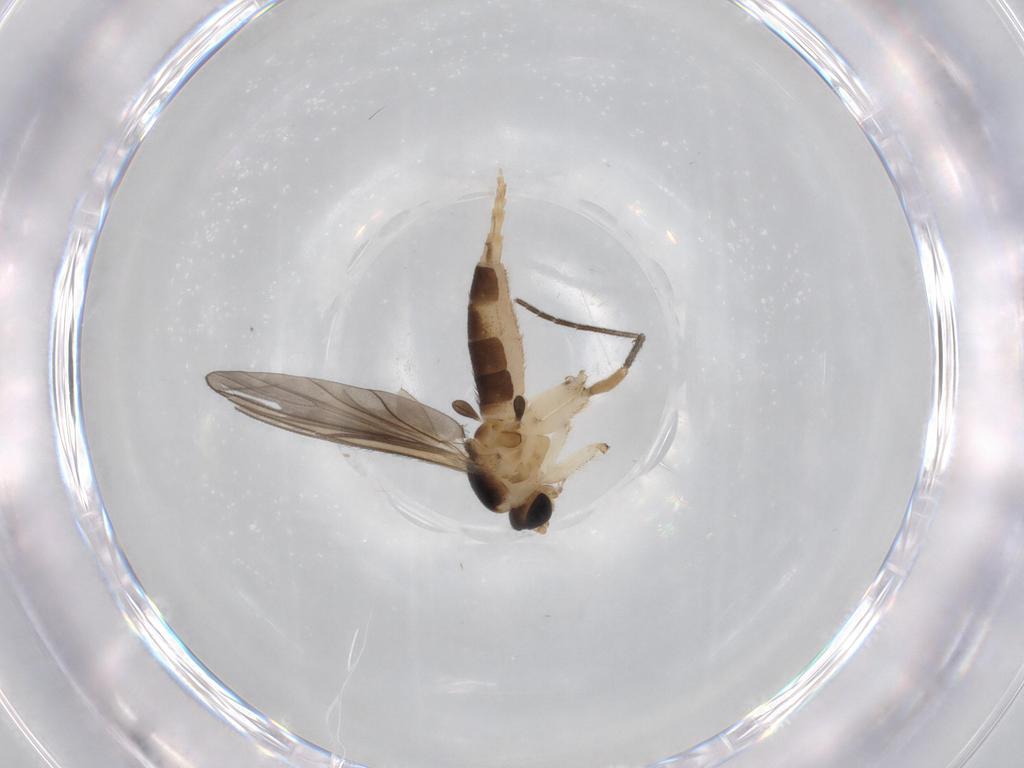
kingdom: Animalia
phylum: Arthropoda
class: Insecta
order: Diptera
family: Sciaridae
